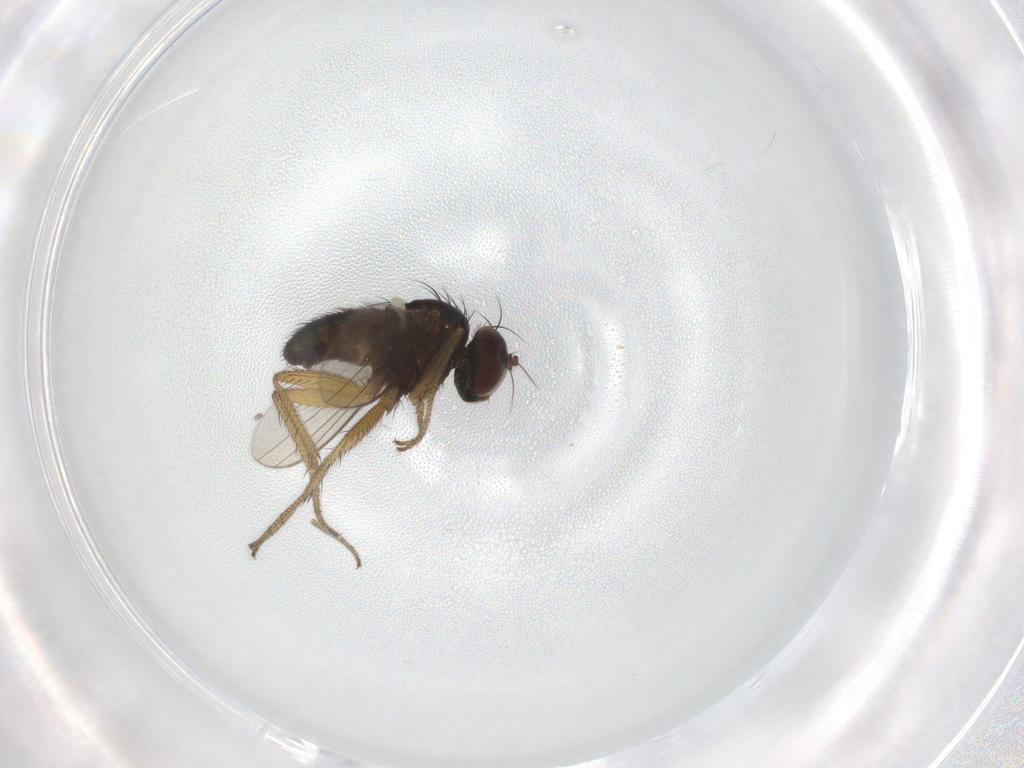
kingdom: Animalia
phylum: Arthropoda
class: Insecta
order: Diptera
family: Dolichopodidae
